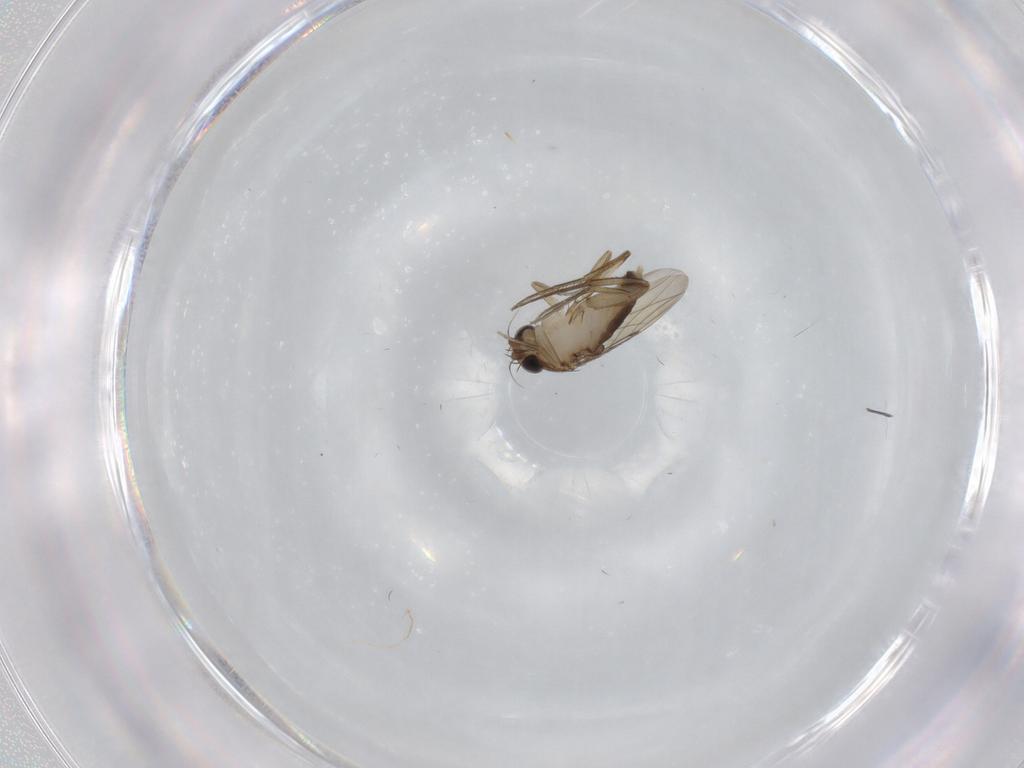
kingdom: Animalia
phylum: Arthropoda
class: Insecta
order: Diptera
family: Phoridae
